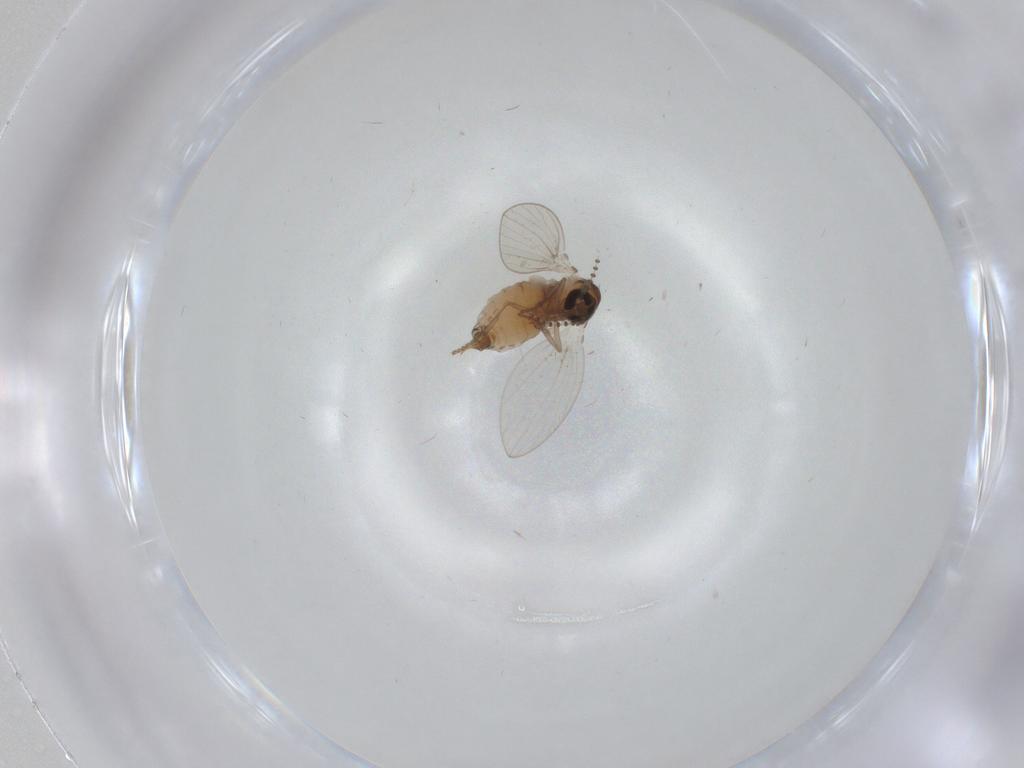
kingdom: Animalia
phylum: Arthropoda
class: Insecta
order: Diptera
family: Psychodidae
